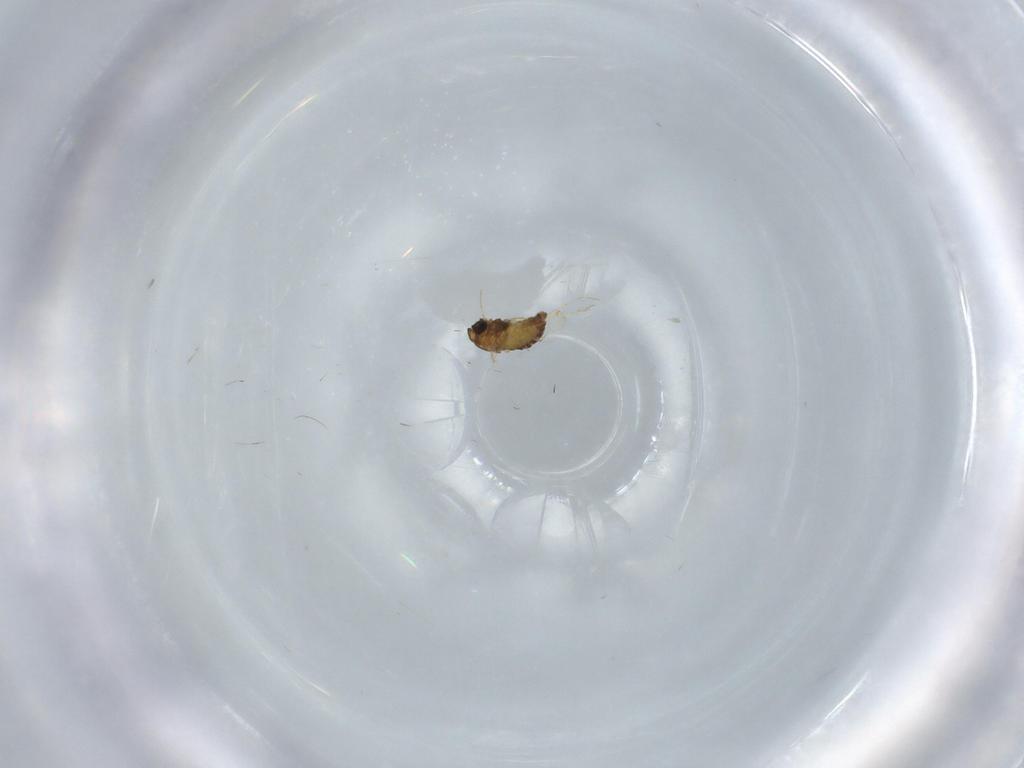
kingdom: Animalia
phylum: Arthropoda
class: Insecta
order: Diptera
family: Chironomidae
